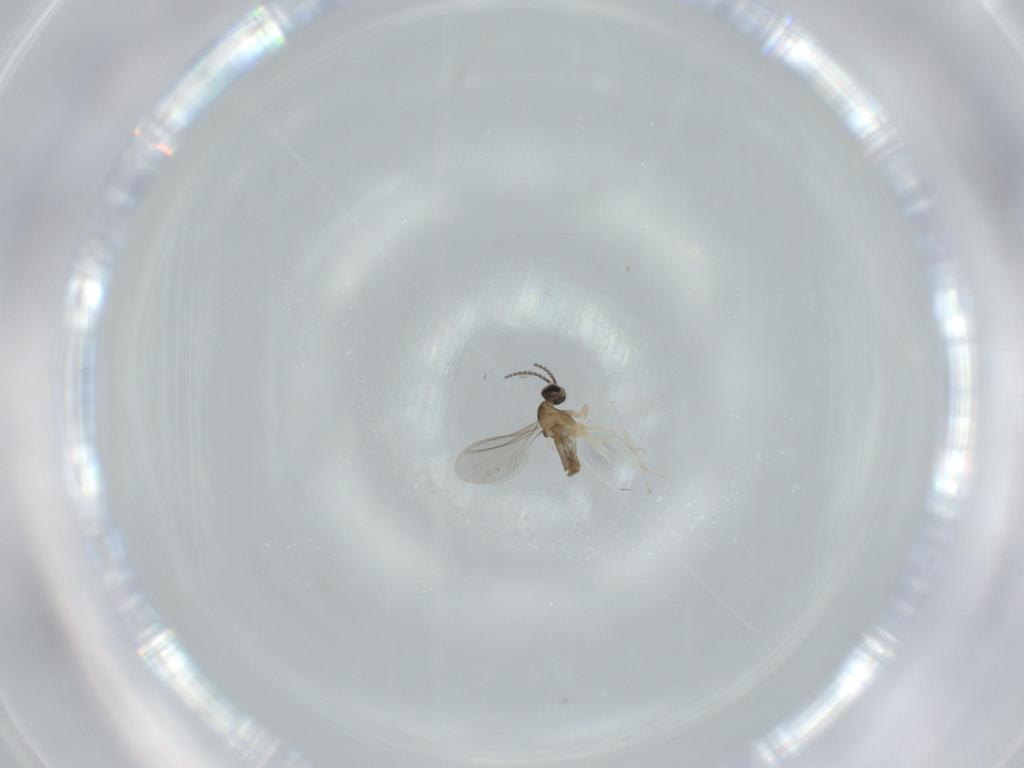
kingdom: Animalia
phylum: Arthropoda
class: Insecta
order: Diptera
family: Cecidomyiidae
